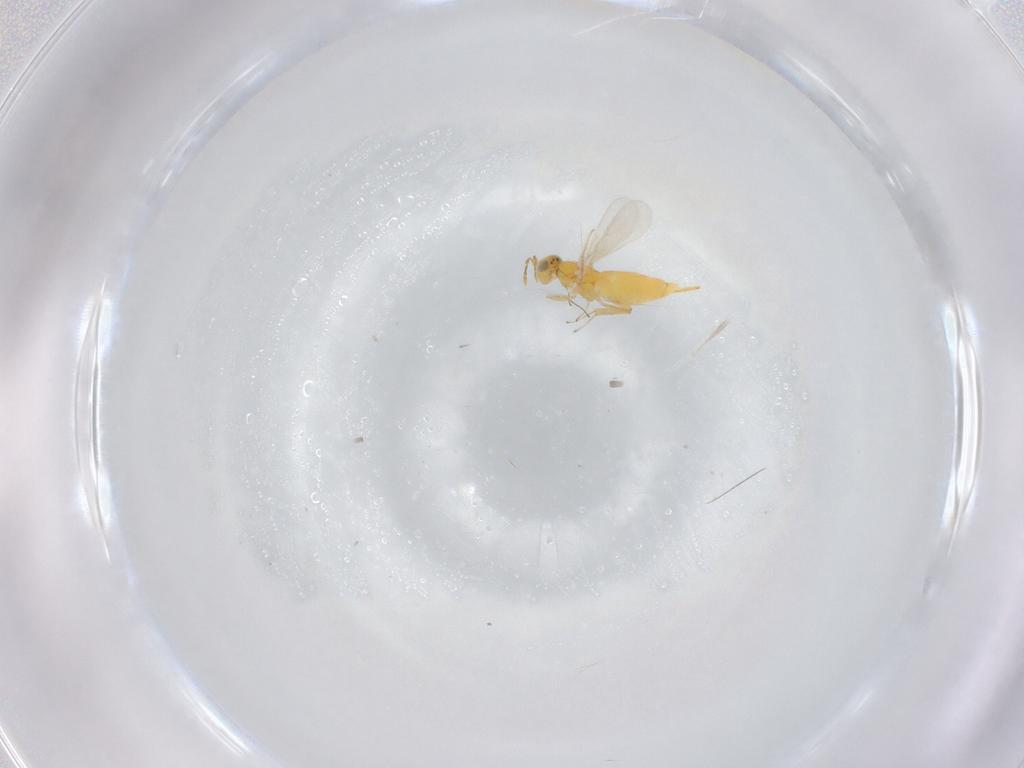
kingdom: Animalia
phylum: Arthropoda
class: Insecta
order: Hymenoptera
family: Aphelinidae
